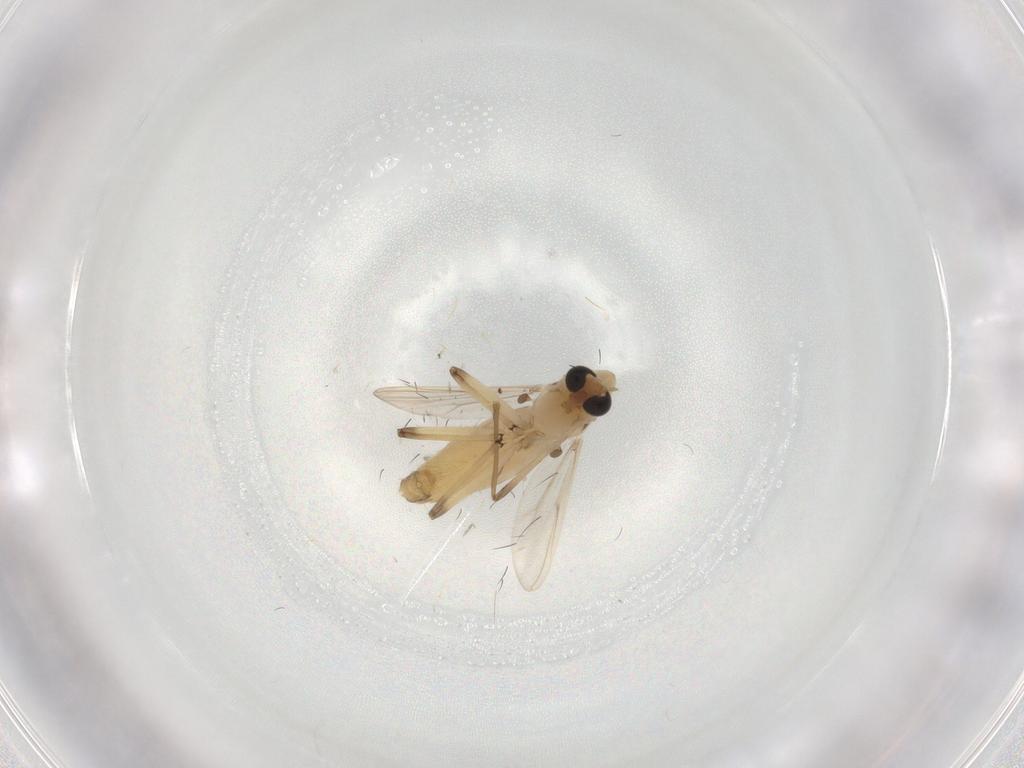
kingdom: Animalia
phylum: Arthropoda
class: Insecta
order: Diptera
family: Chironomidae
